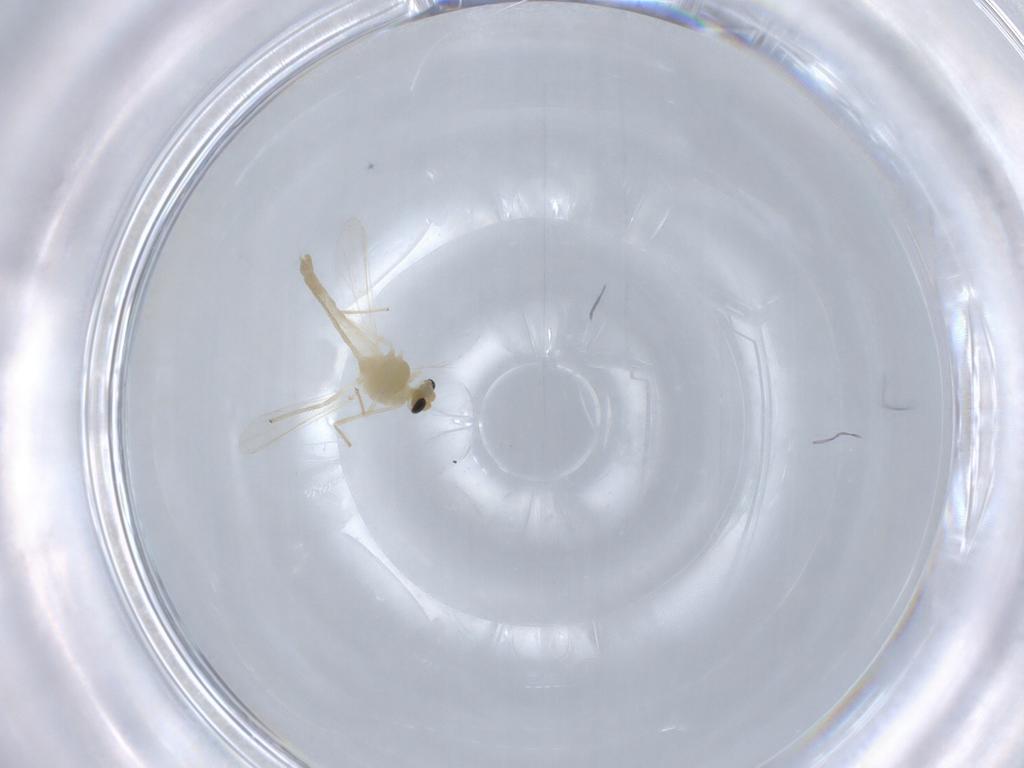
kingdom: Animalia
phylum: Arthropoda
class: Insecta
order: Diptera
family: Chironomidae
